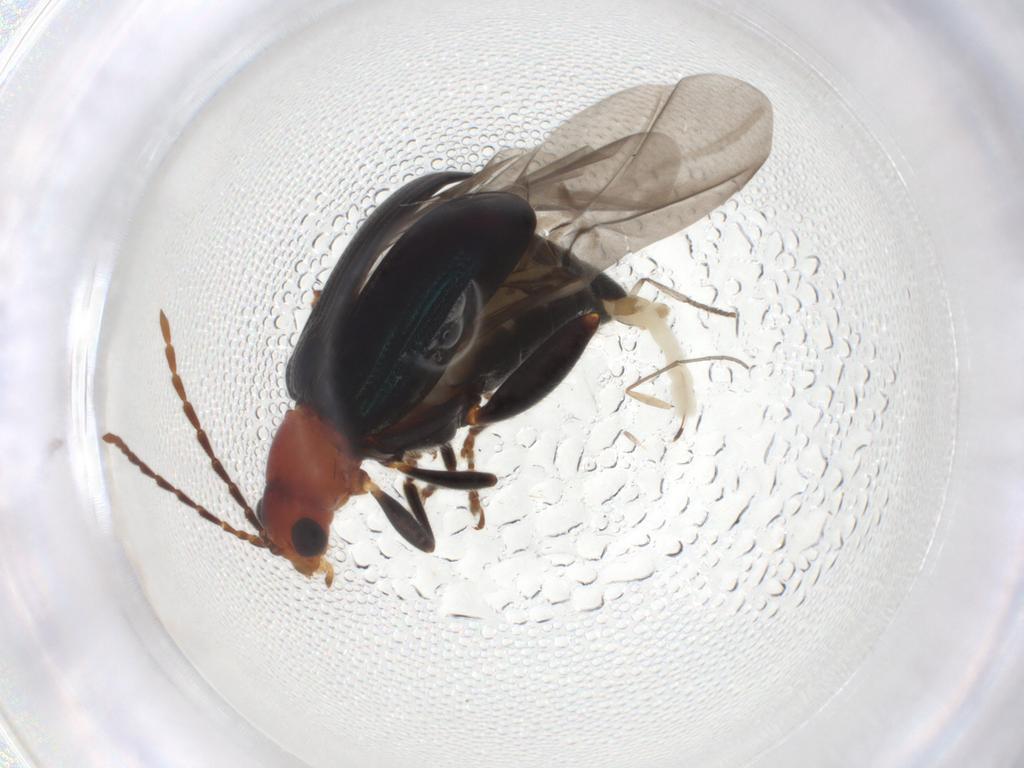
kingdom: Animalia
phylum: Arthropoda
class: Insecta
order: Coleoptera
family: Chrysomelidae
